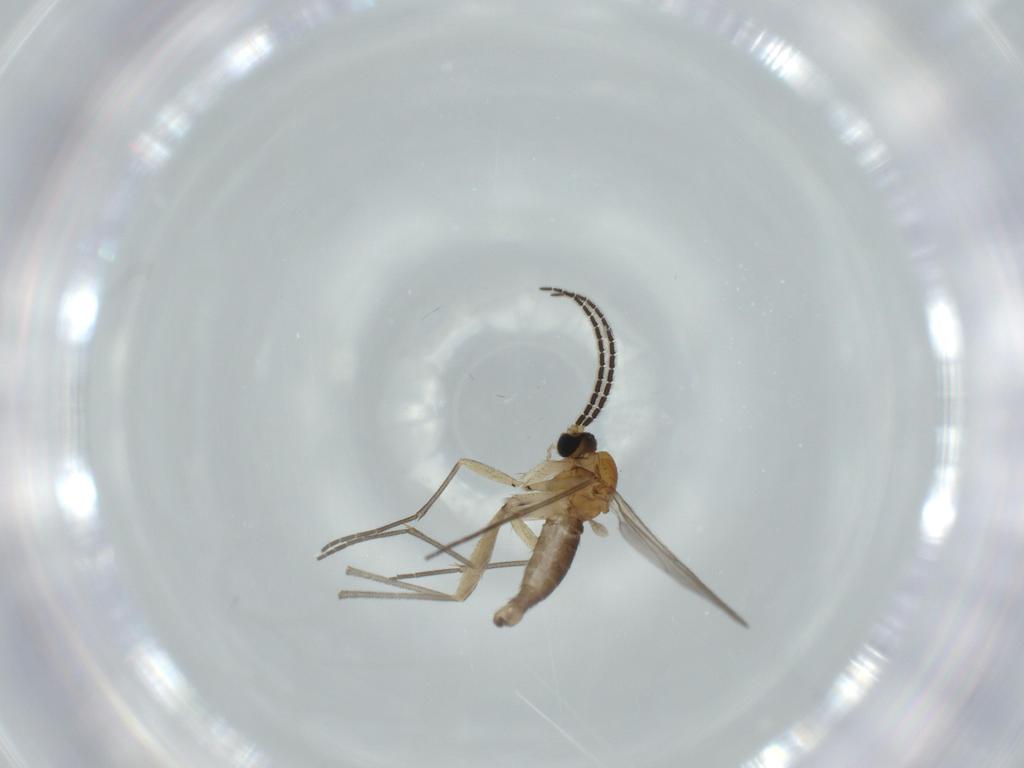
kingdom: Animalia
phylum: Arthropoda
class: Insecta
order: Diptera
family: Sciaridae
